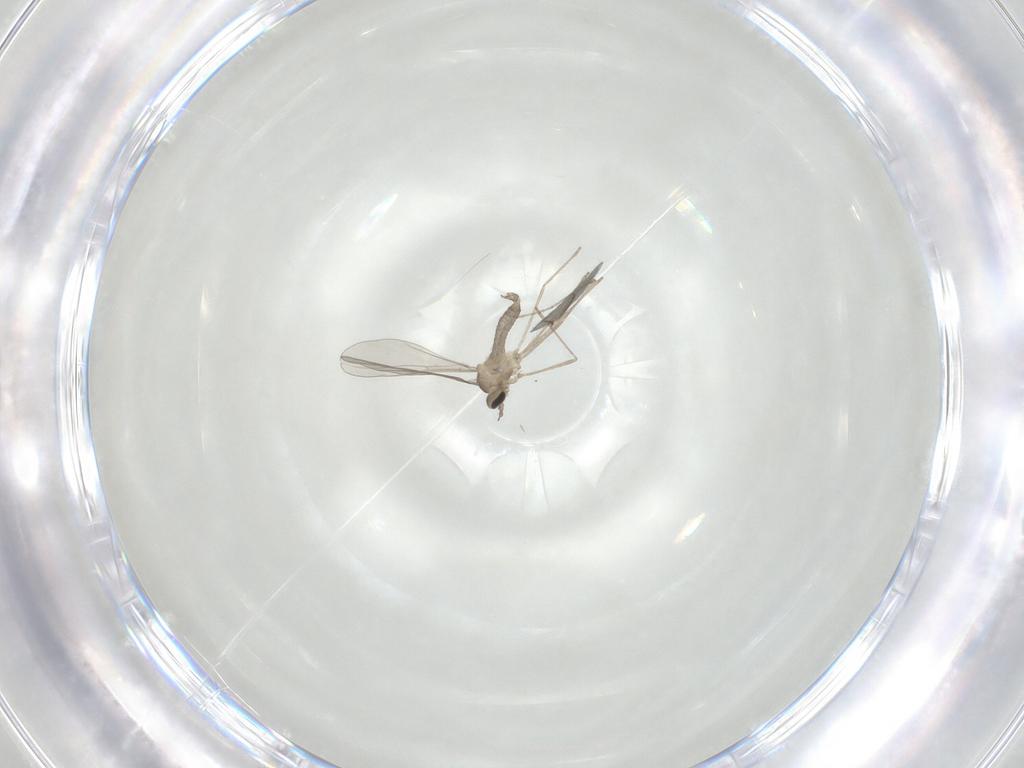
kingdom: Animalia
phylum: Arthropoda
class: Insecta
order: Diptera
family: Cecidomyiidae
